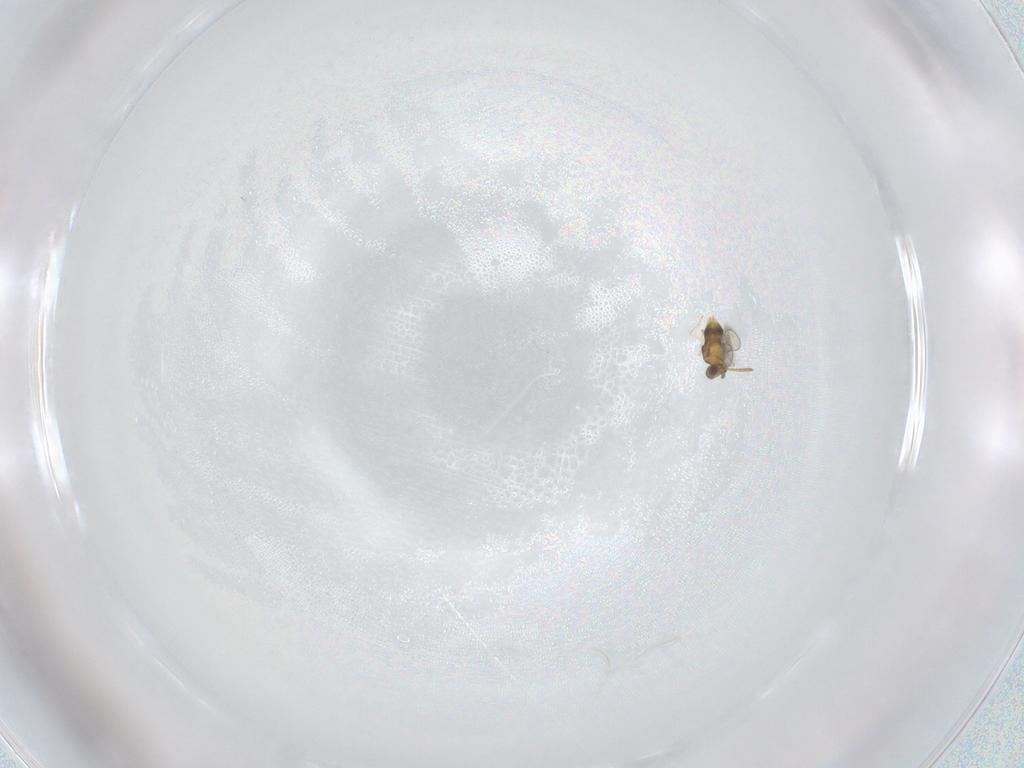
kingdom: Animalia
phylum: Arthropoda
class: Insecta
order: Hymenoptera
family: Aphelinidae
